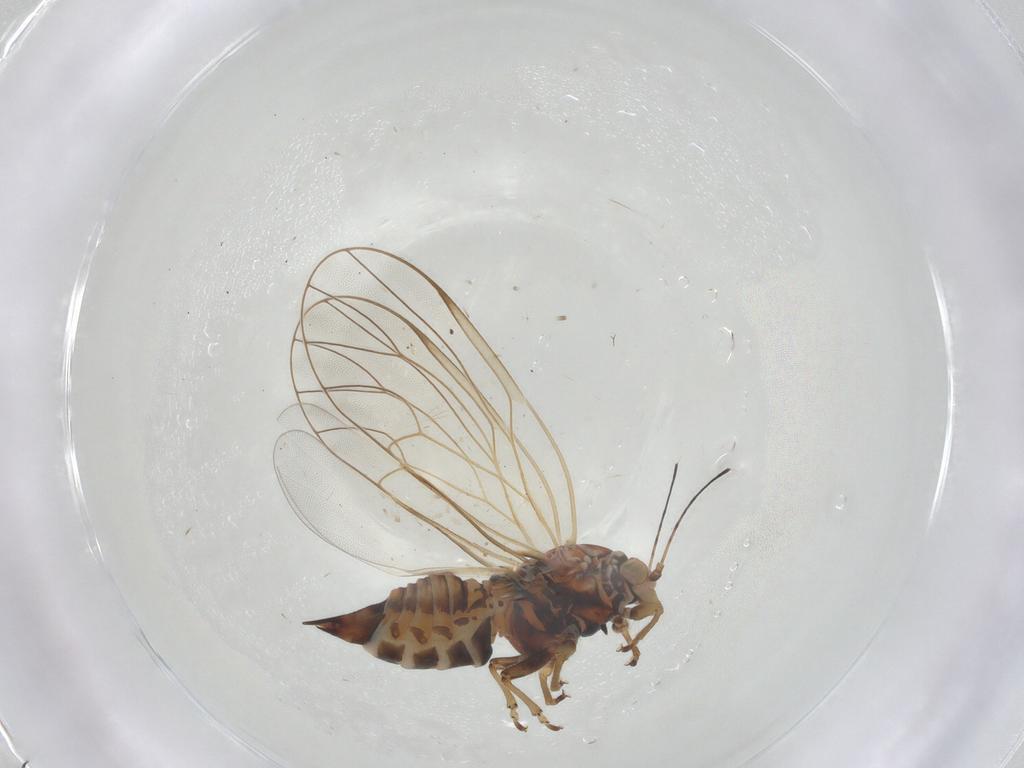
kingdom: Animalia
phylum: Arthropoda
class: Insecta
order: Hemiptera
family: Psyllidae
